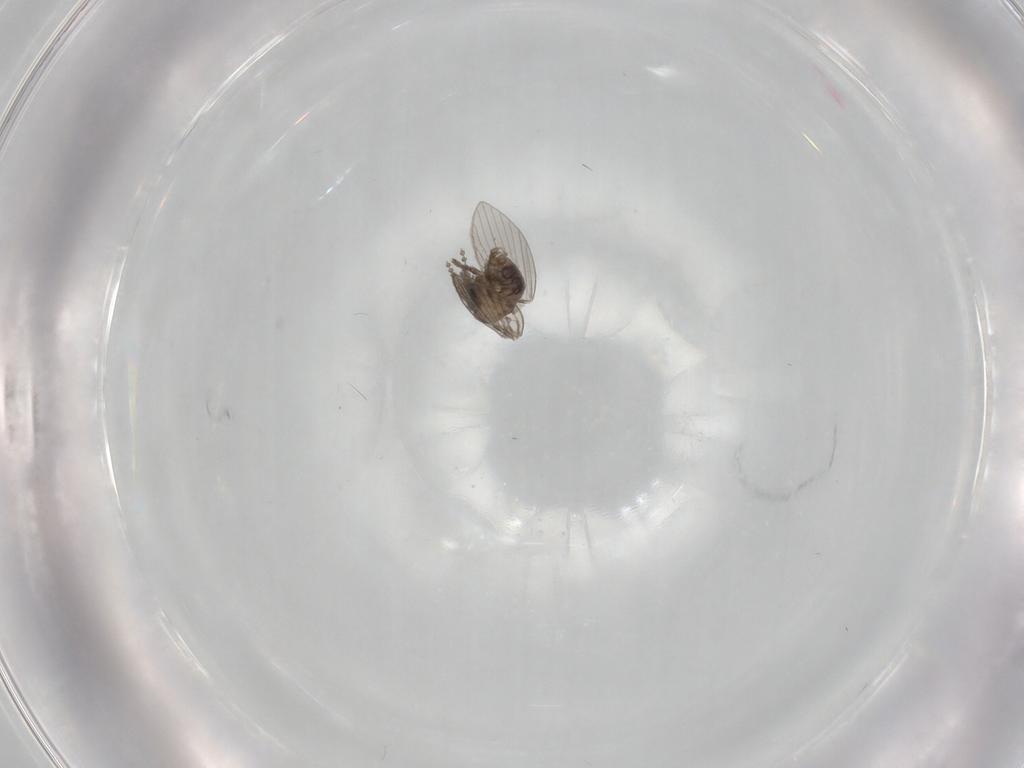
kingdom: Animalia
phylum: Arthropoda
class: Insecta
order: Diptera
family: Psychodidae
